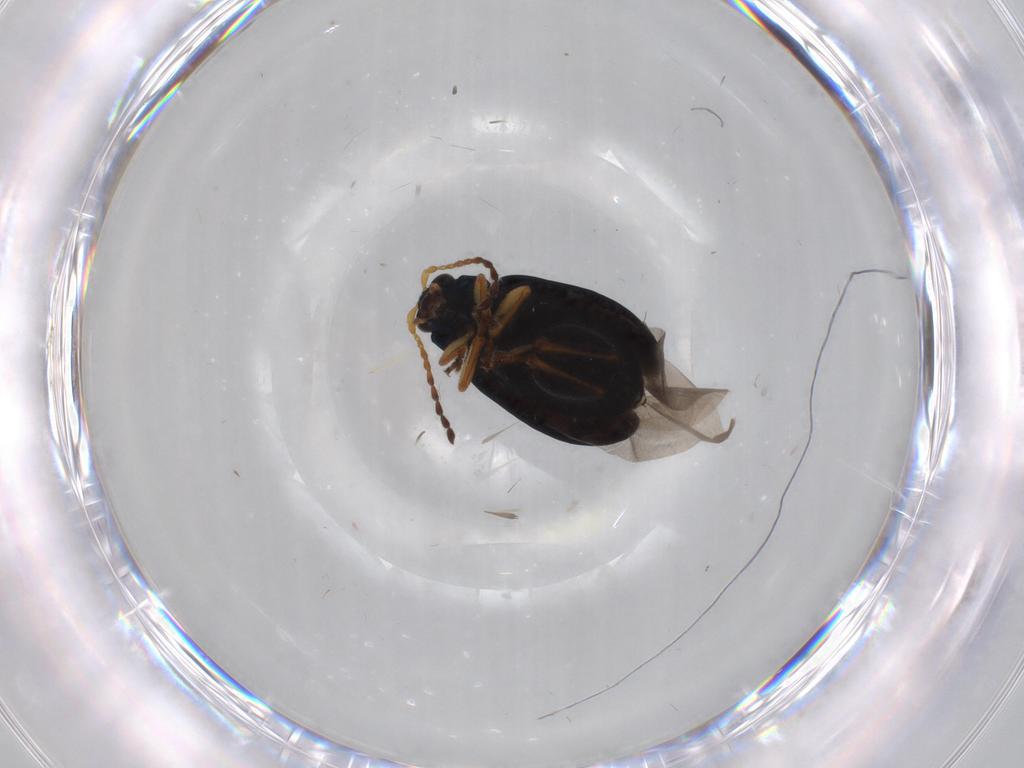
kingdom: Animalia
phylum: Arthropoda
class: Insecta
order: Coleoptera
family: Chrysomelidae
